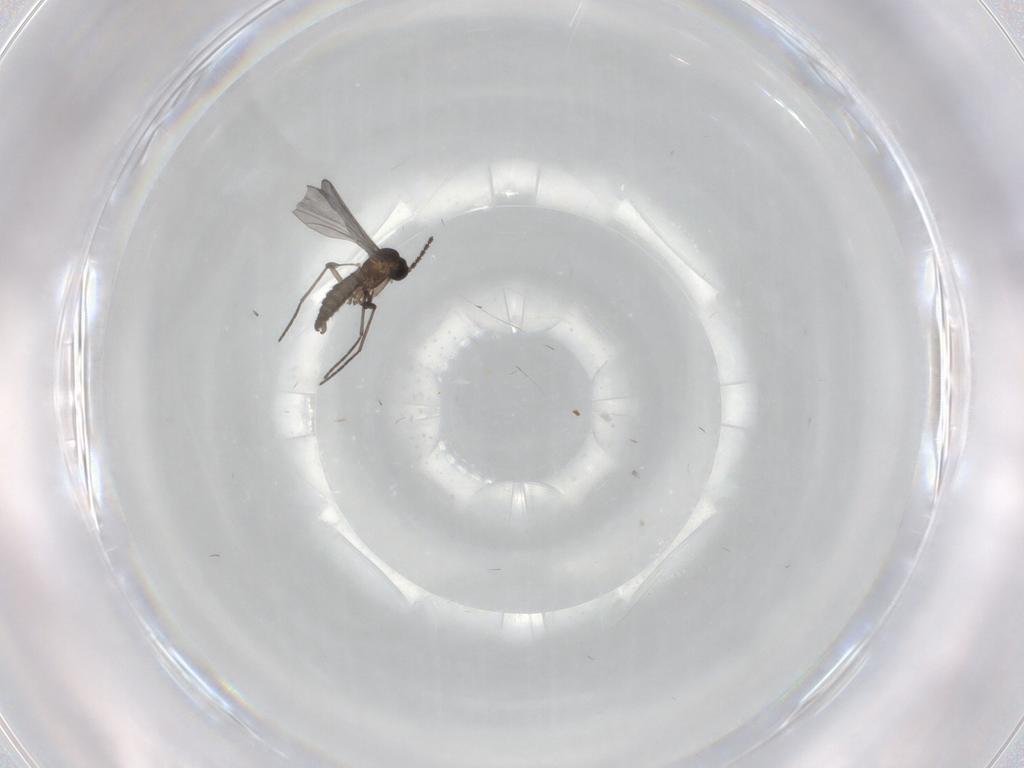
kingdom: Animalia
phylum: Arthropoda
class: Insecta
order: Diptera
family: Sciaridae
